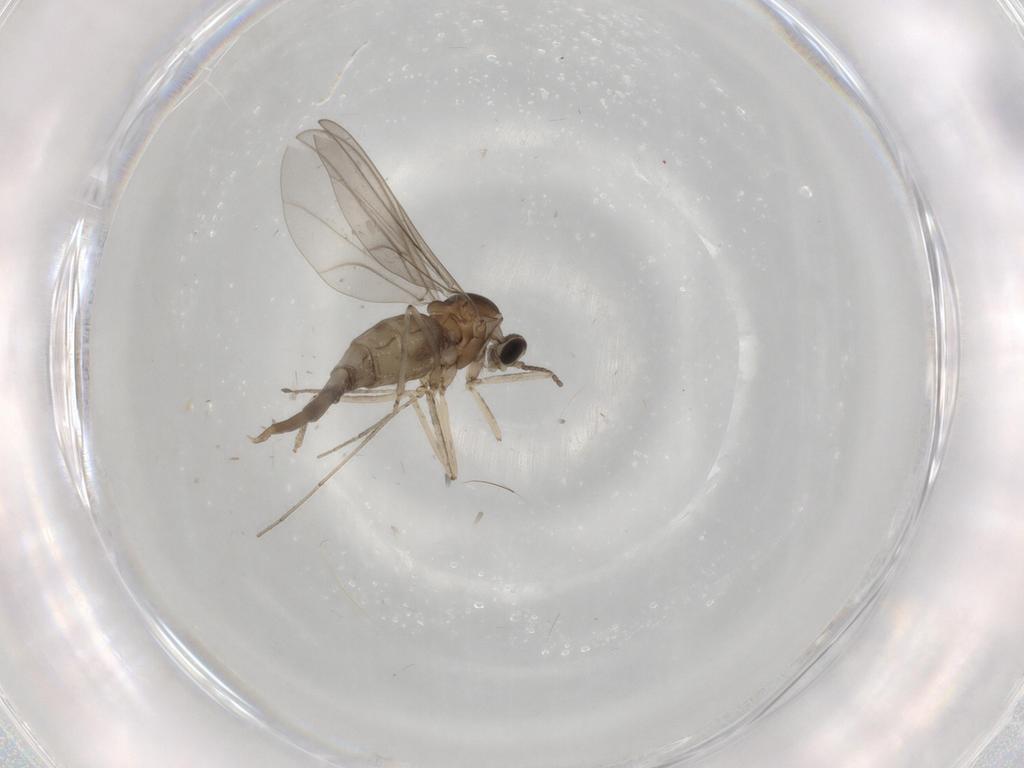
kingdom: Animalia
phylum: Arthropoda
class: Insecta
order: Diptera
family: Cecidomyiidae
